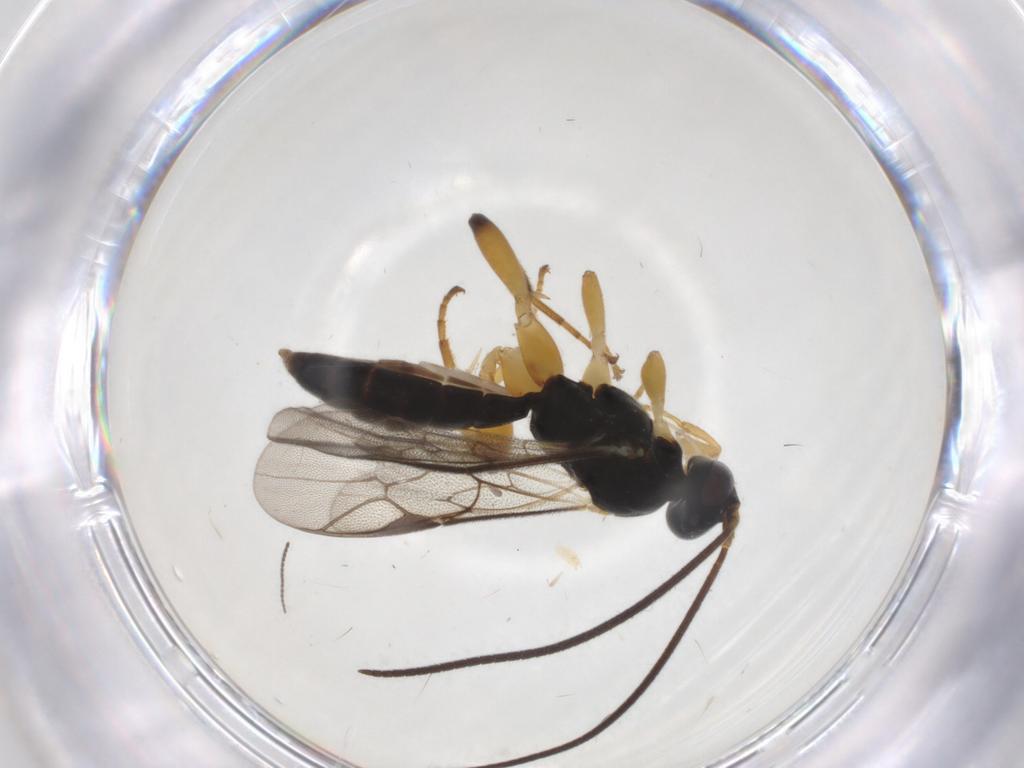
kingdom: Animalia
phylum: Arthropoda
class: Insecta
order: Hymenoptera
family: Ichneumonidae
